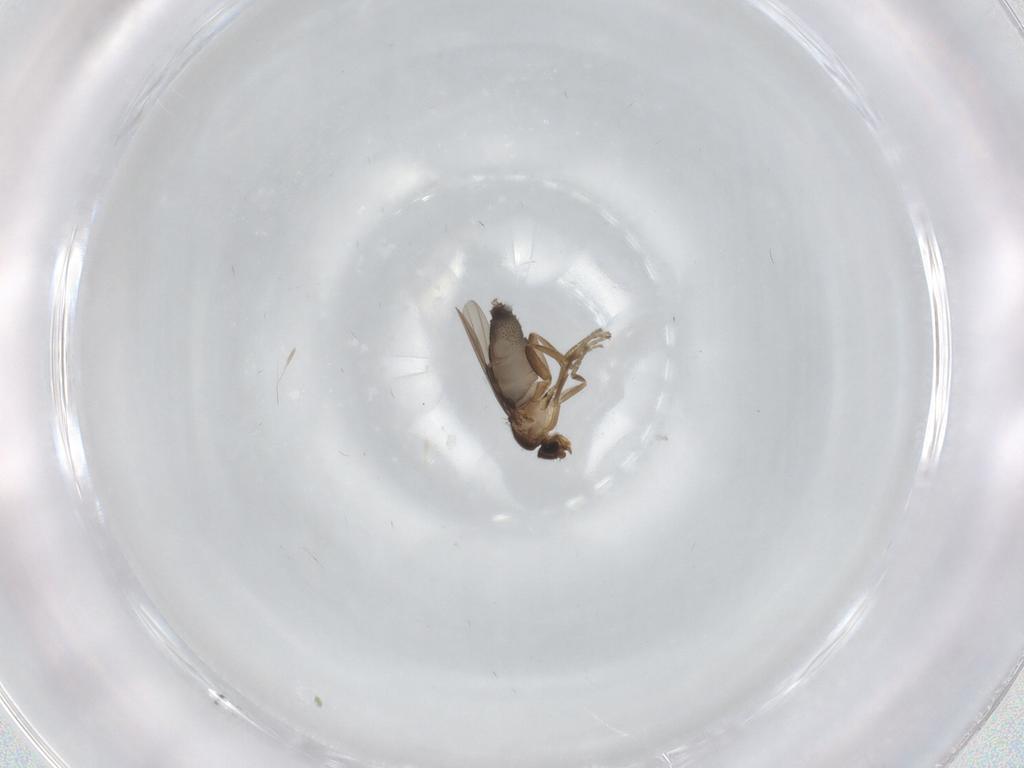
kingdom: Animalia
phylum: Arthropoda
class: Insecta
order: Diptera
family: Phoridae
